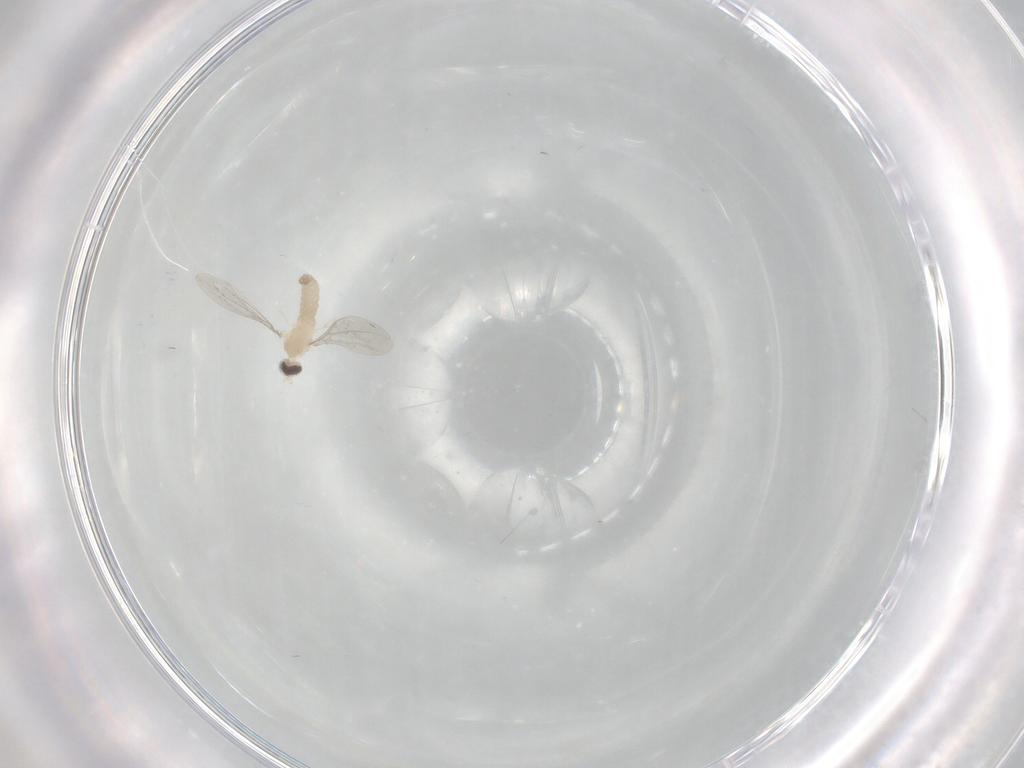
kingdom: Animalia
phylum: Arthropoda
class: Insecta
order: Diptera
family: Cecidomyiidae
